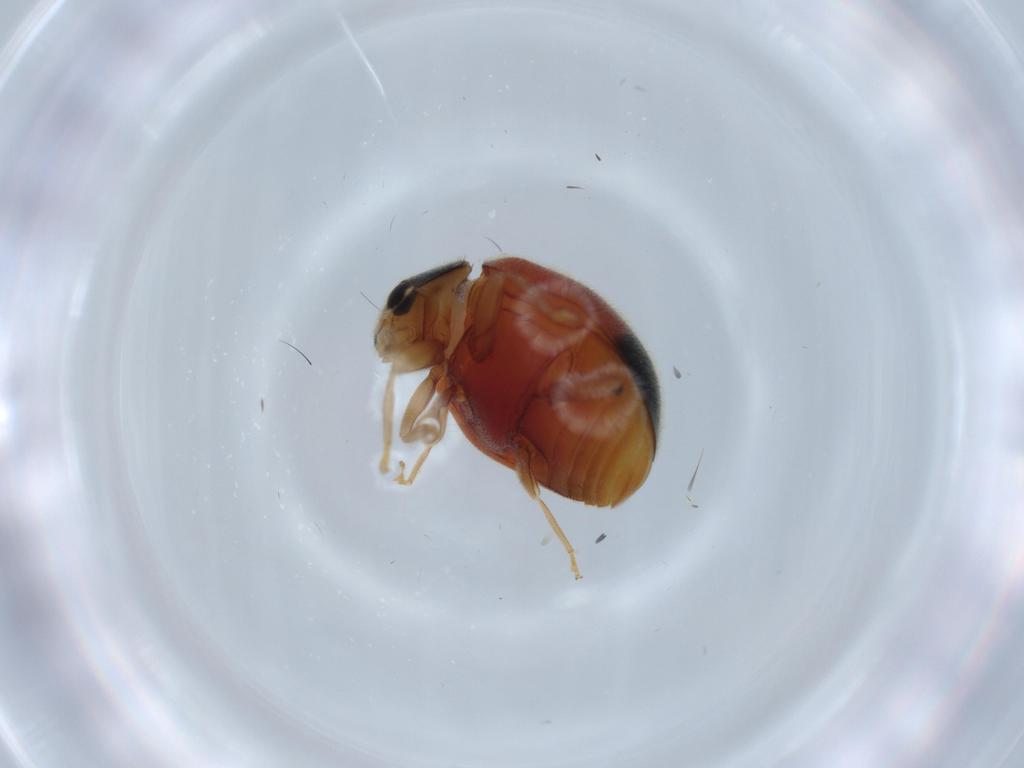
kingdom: Animalia
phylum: Arthropoda
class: Insecta
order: Coleoptera
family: Coccinellidae
